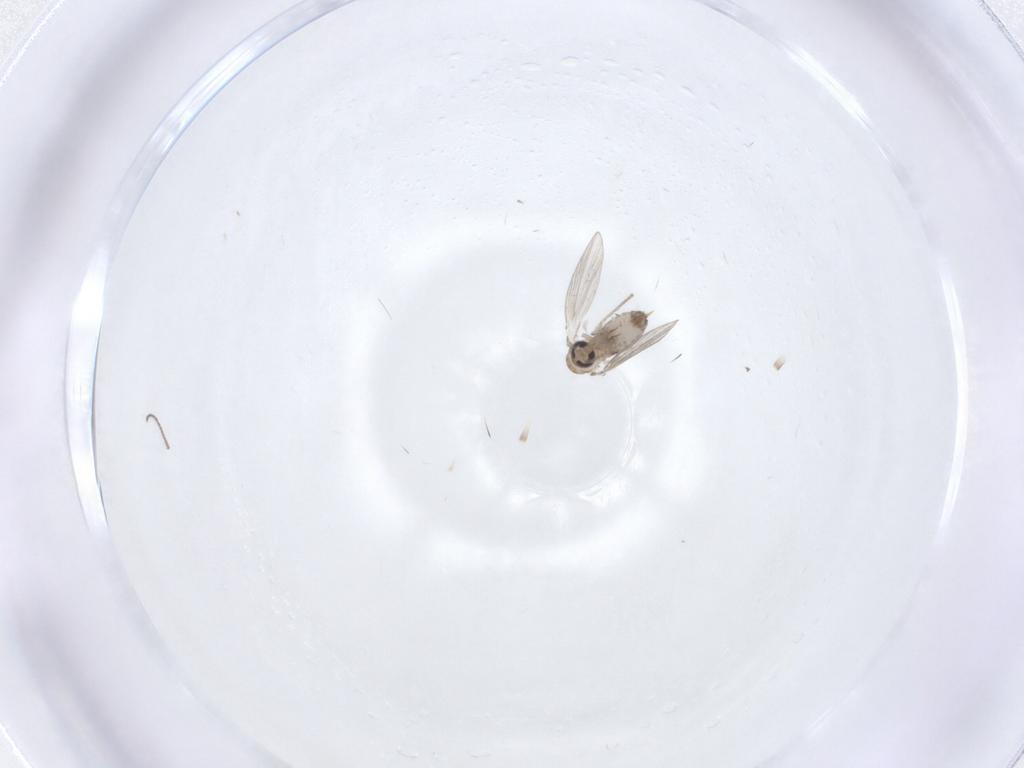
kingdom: Animalia
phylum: Arthropoda
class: Insecta
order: Diptera
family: Psychodidae
